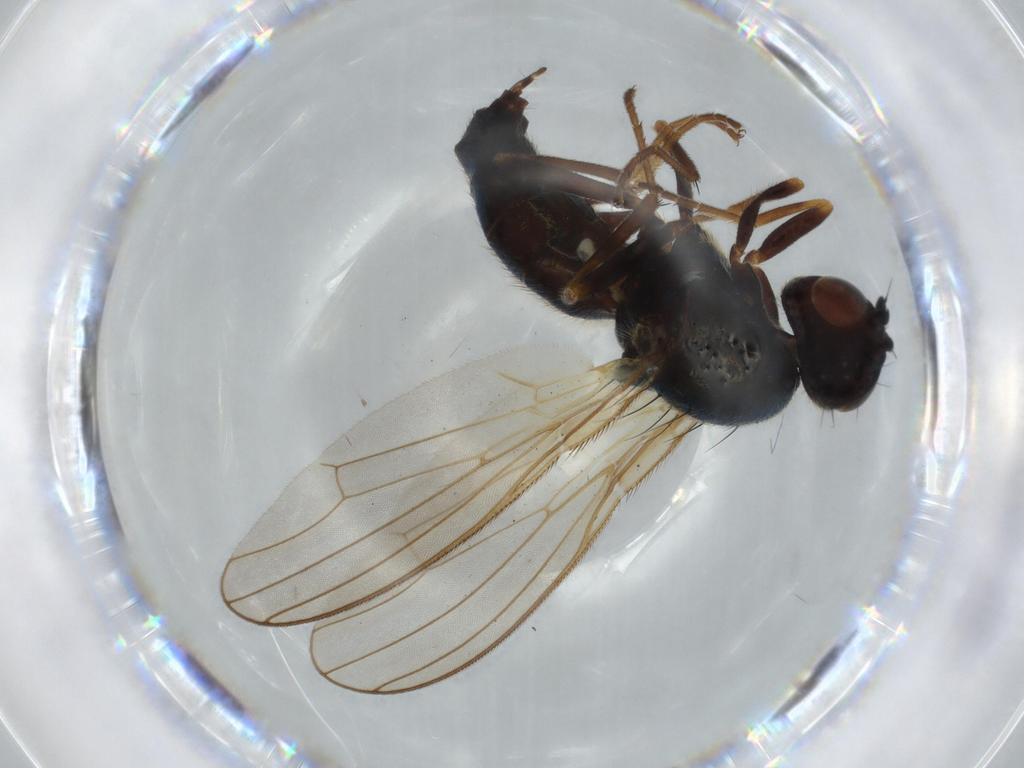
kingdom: Animalia
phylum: Arthropoda
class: Insecta
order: Diptera
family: Psychodidae
